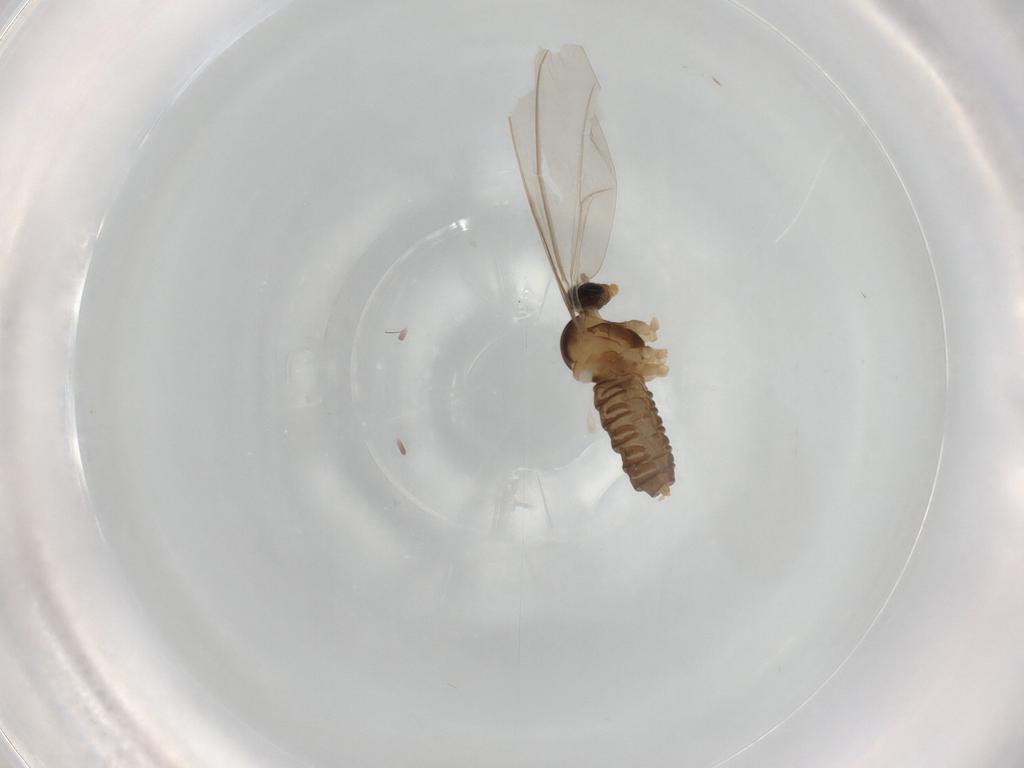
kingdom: Animalia
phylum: Arthropoda
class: Insecta
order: Diptera
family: Cecidomyiidae
